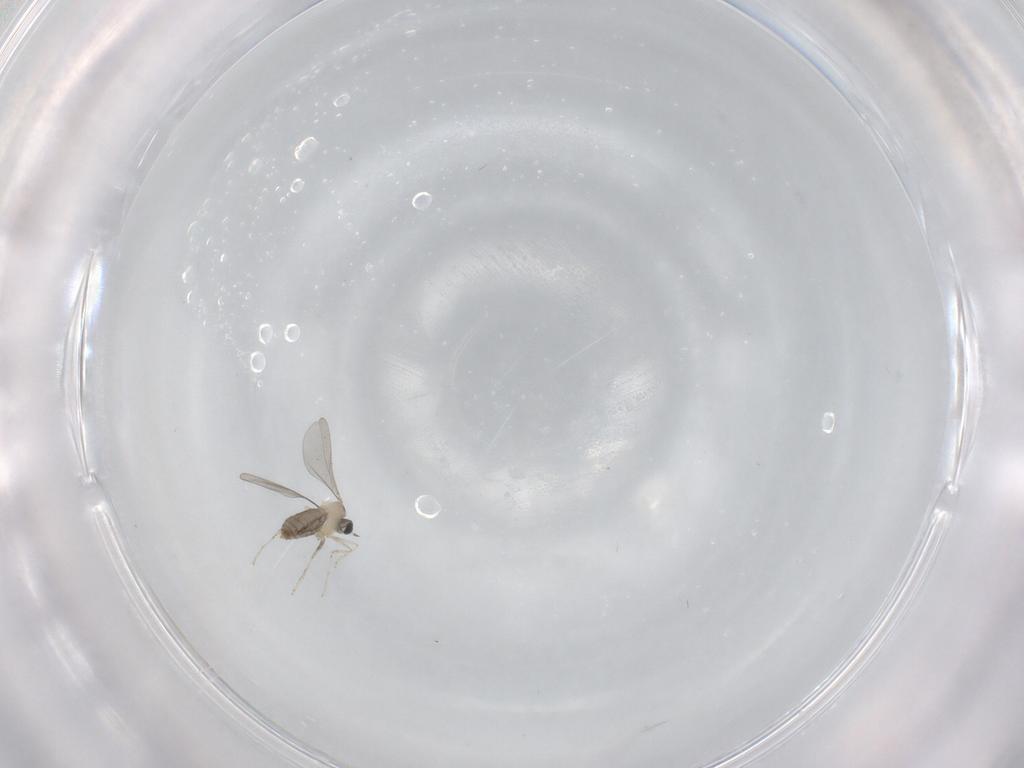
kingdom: Animalia
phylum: Arthropoda
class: Insecta
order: Diptera
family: Cecidomyiidae
